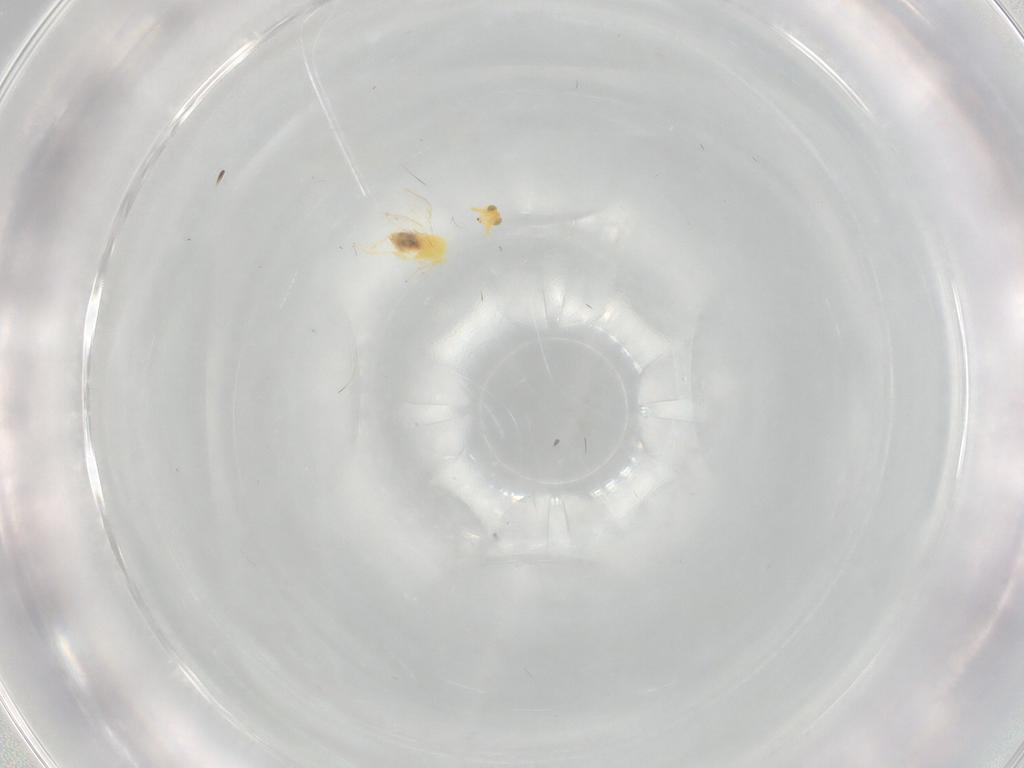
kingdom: Animalia
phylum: Arthropoda
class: Insecta
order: Hymenoptera
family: Aphelinidae
